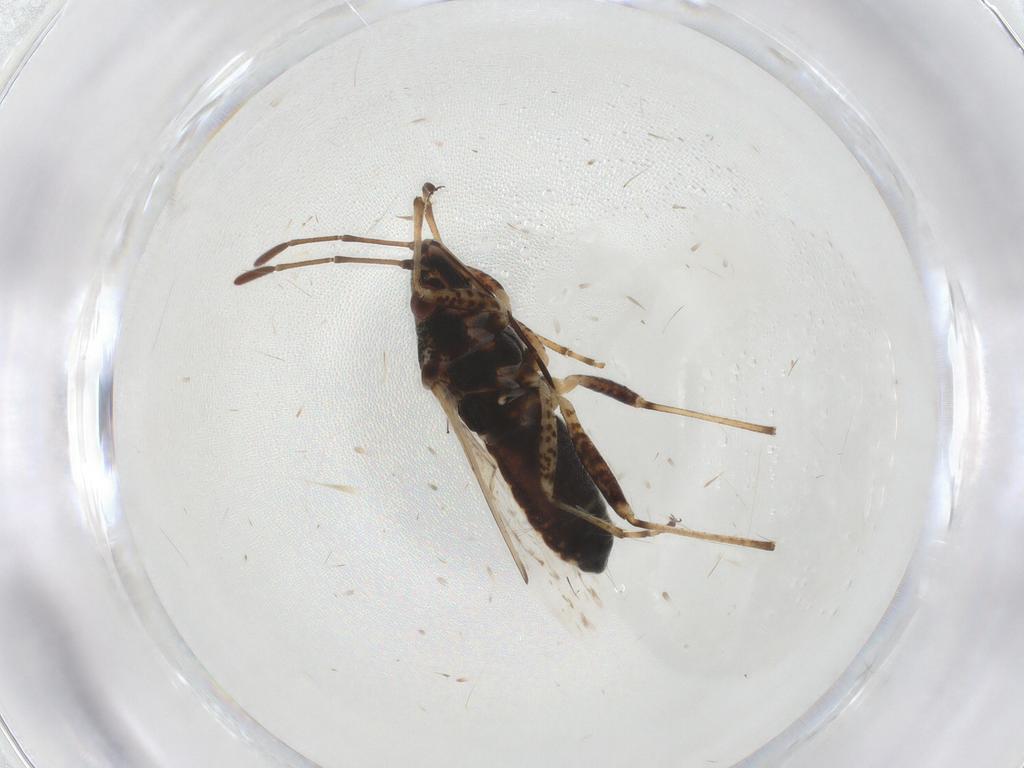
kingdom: Animalia
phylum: Arthropoda
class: Insecta
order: Hemiptera
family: Lygaeidae
